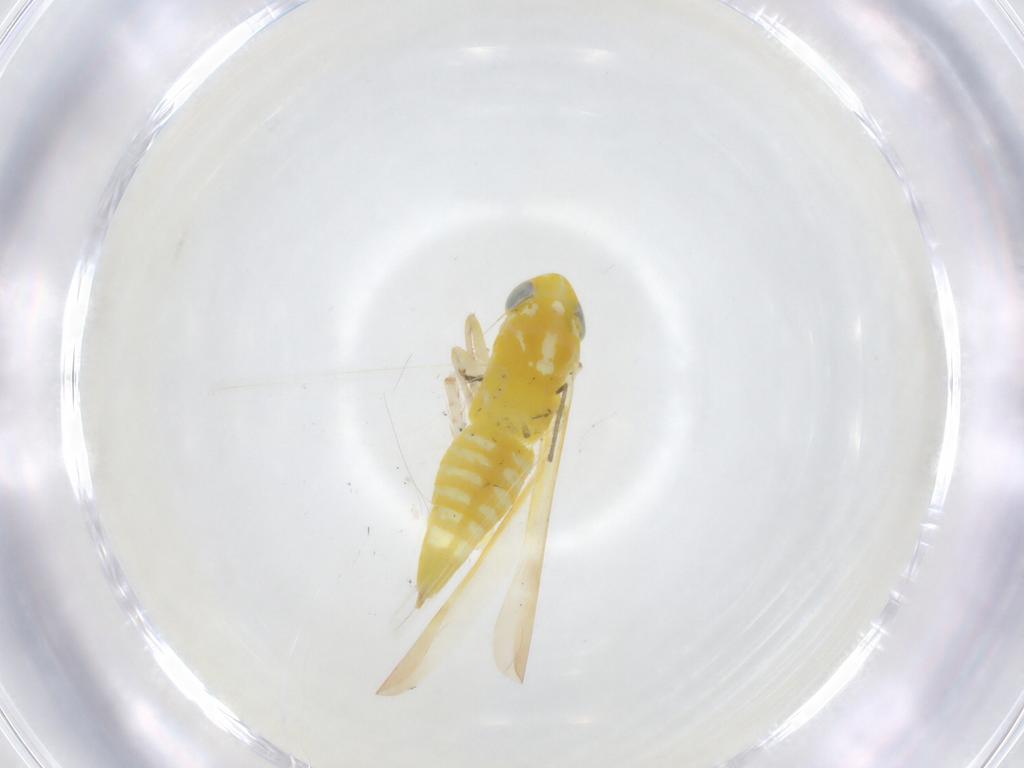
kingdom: Animalia
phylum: Arthropoda
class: Insecta
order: Hemiptera
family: Cicadellidae
